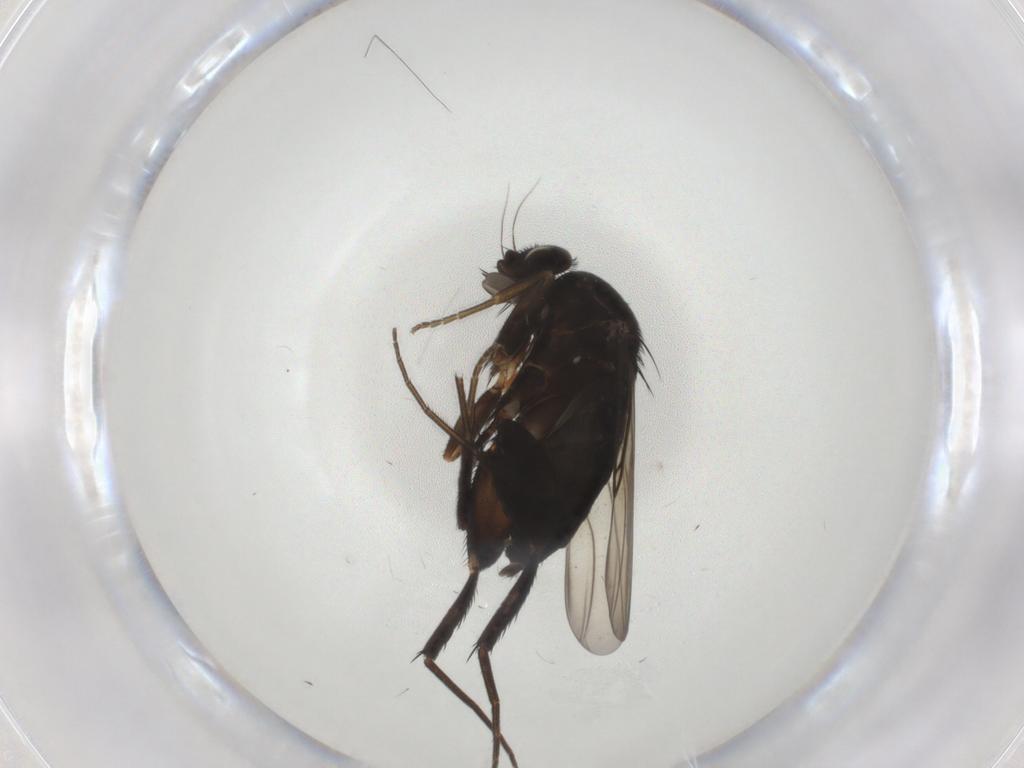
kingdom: Animalia
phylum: Arthropoda
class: Insecta
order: Diptera
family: Phoridae
